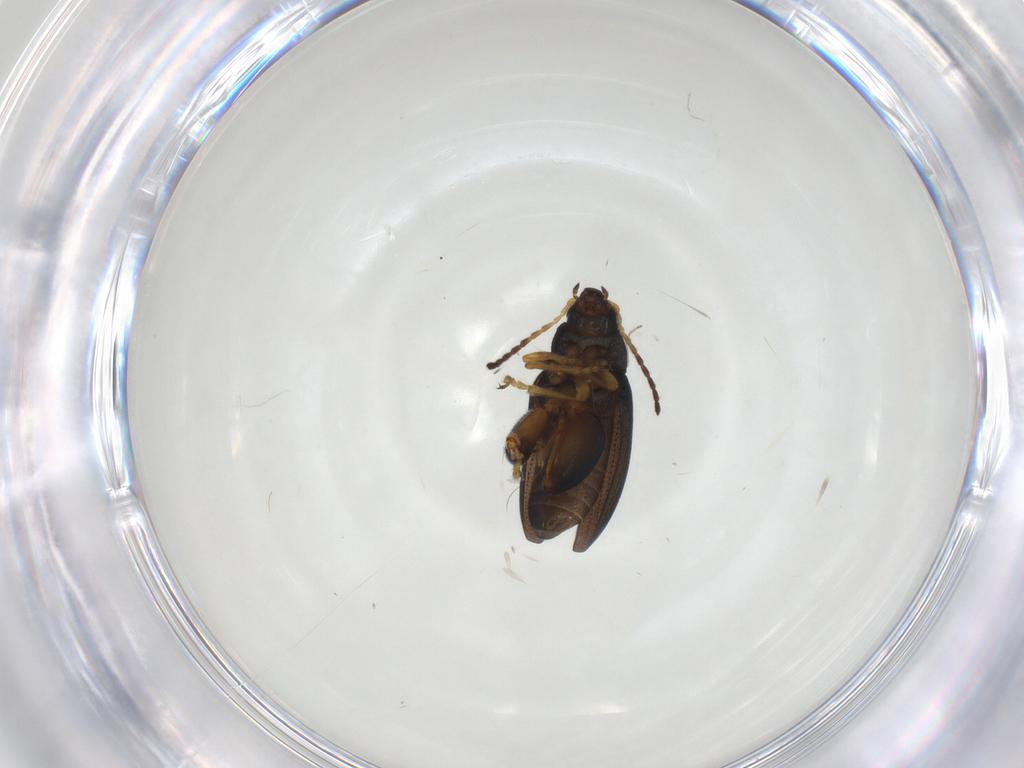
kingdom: Animalia
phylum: Arthropoda
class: Insecta
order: Coleoptera
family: Chrysomelidae
